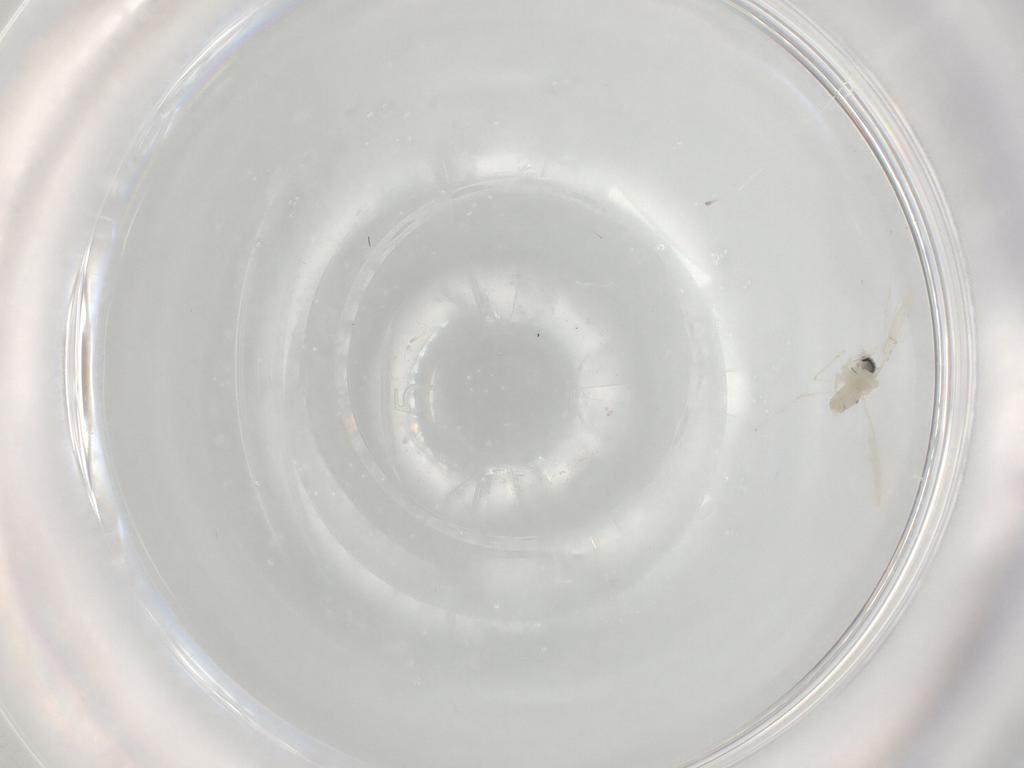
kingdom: Animalia
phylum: Arthropoda
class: Insecta
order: Diptera
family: Cecidomyiidae
